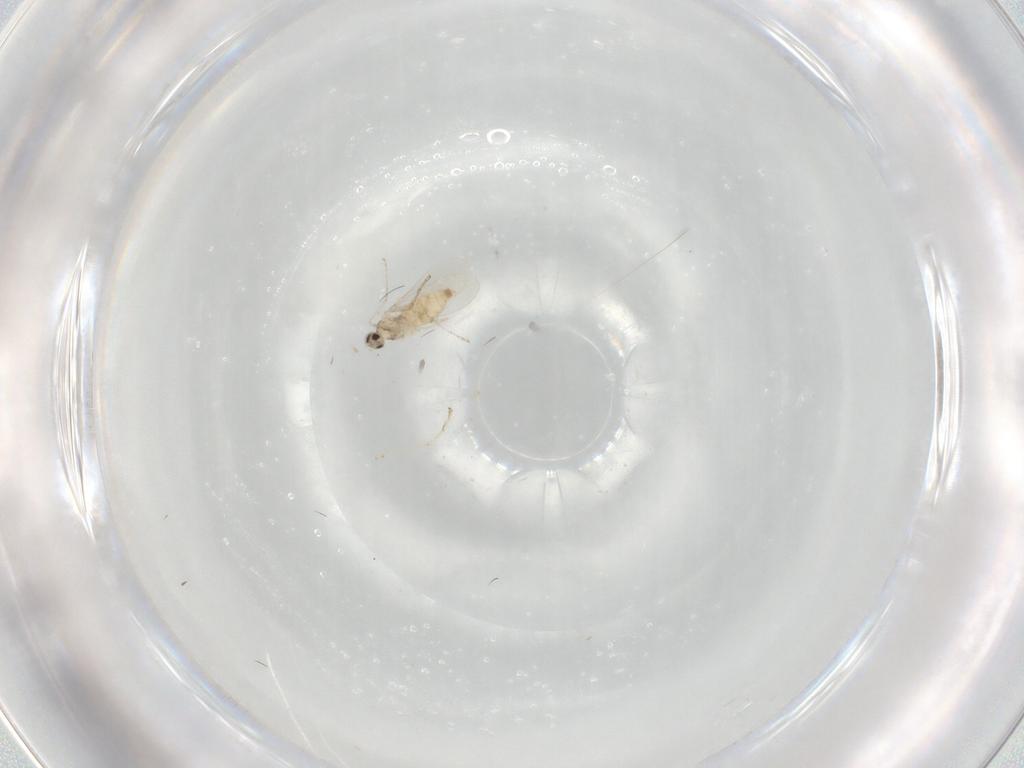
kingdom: Animalia
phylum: Arthropoda
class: Insecta
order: Diptera
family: Cecidomyiidae
